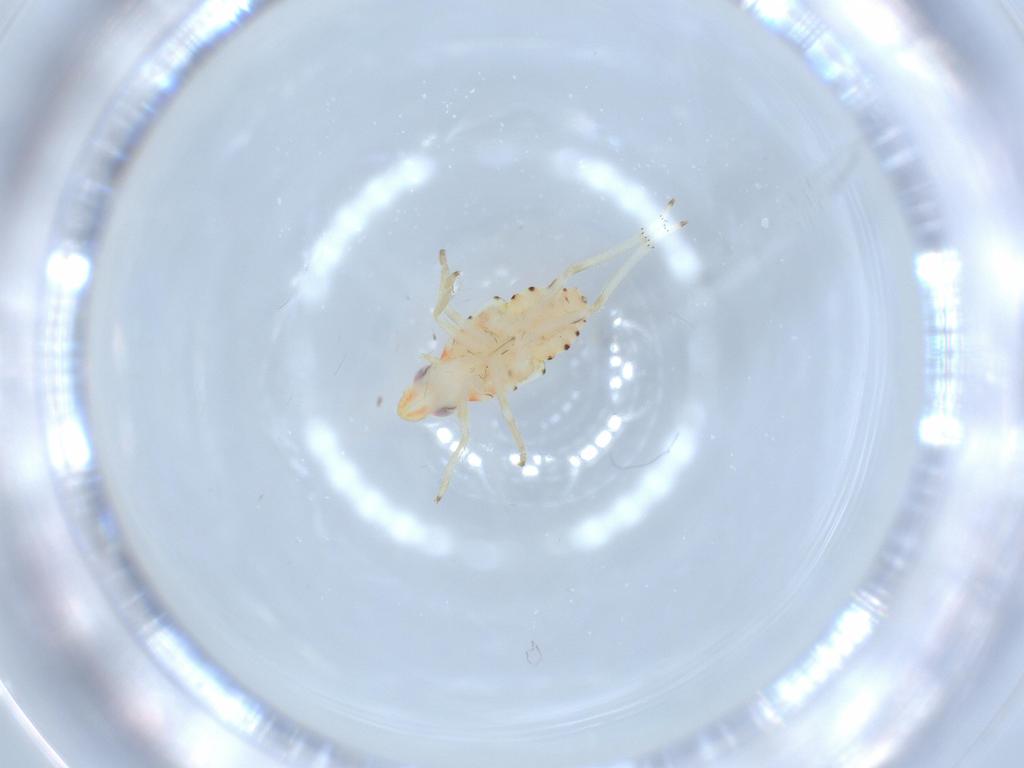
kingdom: Animalia
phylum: Arthropoda
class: Insecta
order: Hemiptera
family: Tropiduchidae
